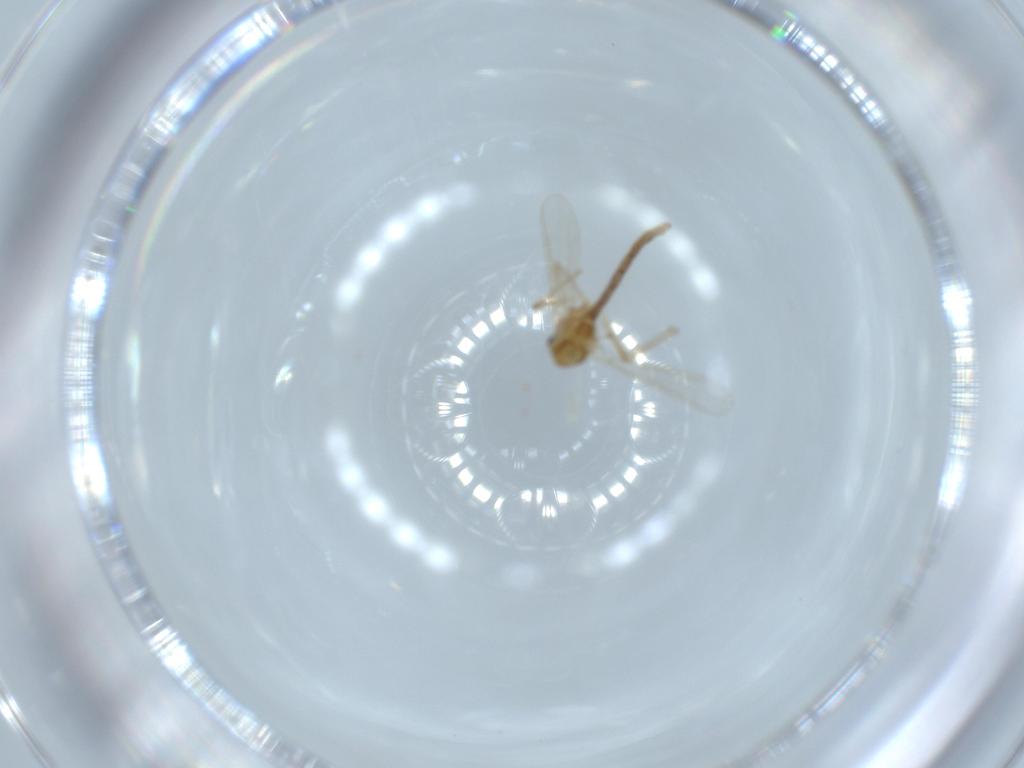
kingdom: Animalia
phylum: Arthropoda
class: Insecta
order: Diptera
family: Chironomidae
